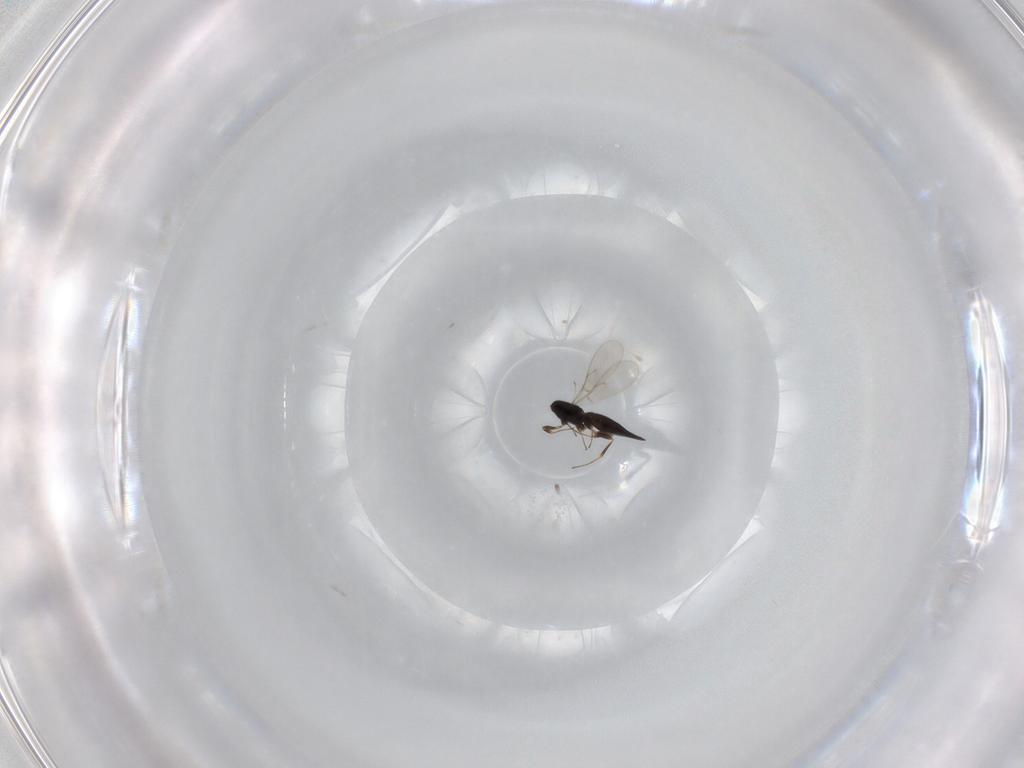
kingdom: Animalia
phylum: Arthropoda
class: Insecta
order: Hymenoptera
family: Scelionidae
